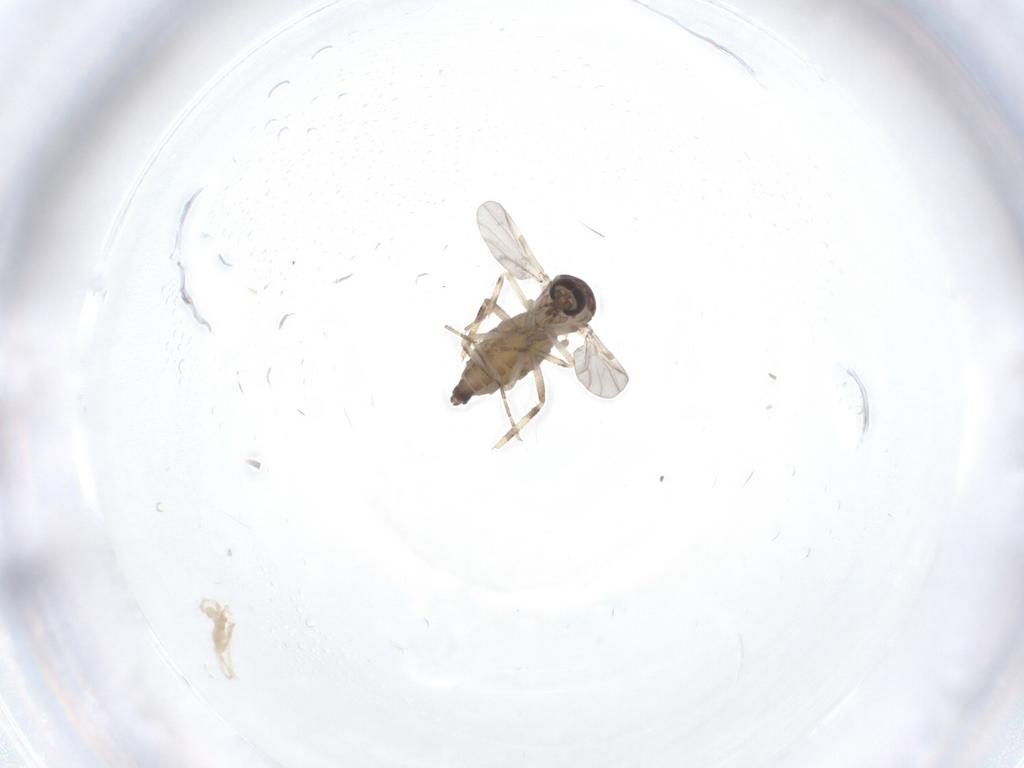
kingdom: Animalia
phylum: Arthropoda
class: Insecta
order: Diptera
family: Ceratopogonidae
